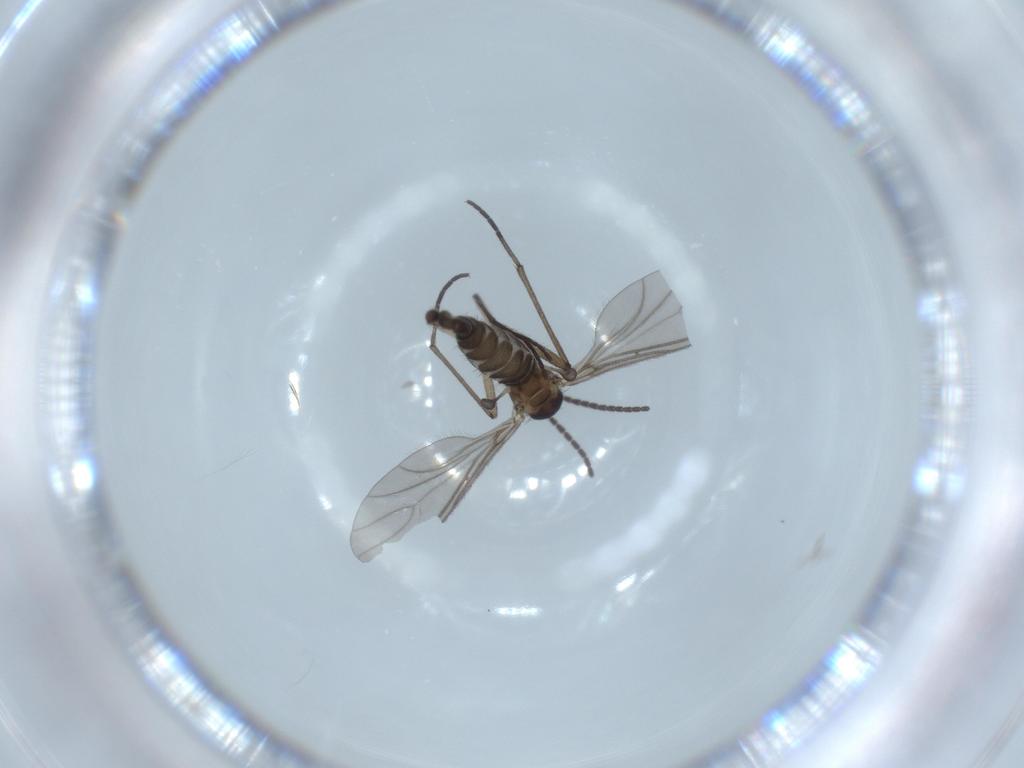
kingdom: Animalia
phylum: Arthropoda
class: Insecta
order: Diptera
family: Sciaridae
